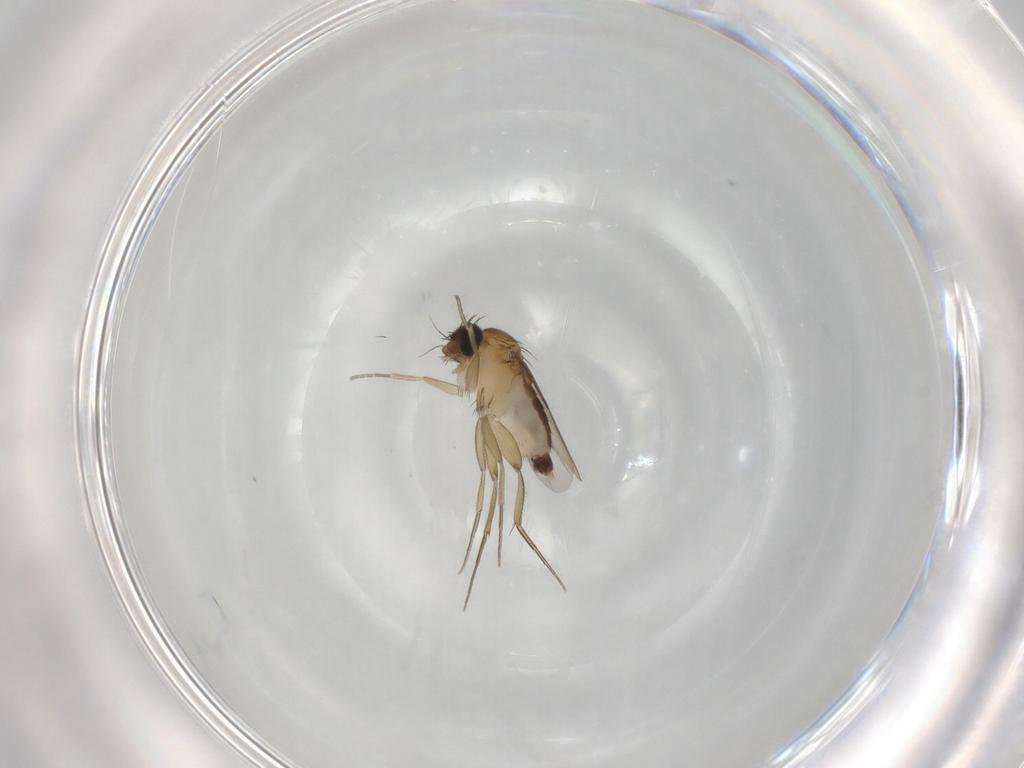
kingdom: Animalia
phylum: Arthropoda
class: Insecta
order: Diptera
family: Phoridae
